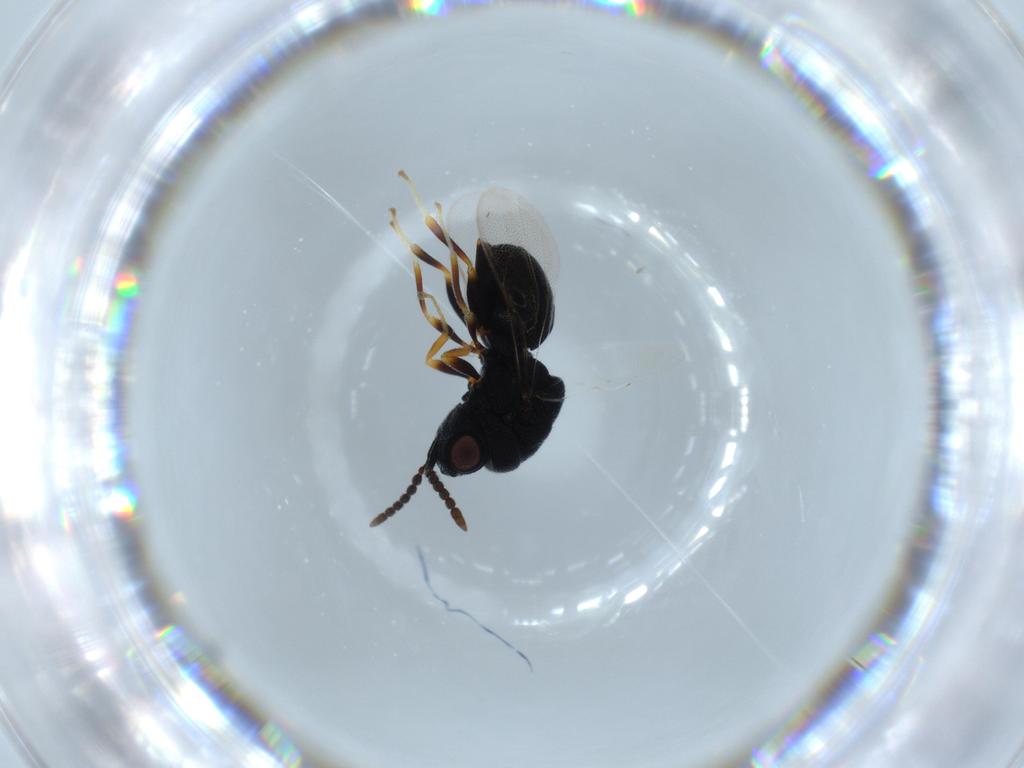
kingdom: Animalia
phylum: Arthropoda
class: Insecta
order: Hymenoptera
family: Eurytomidae
